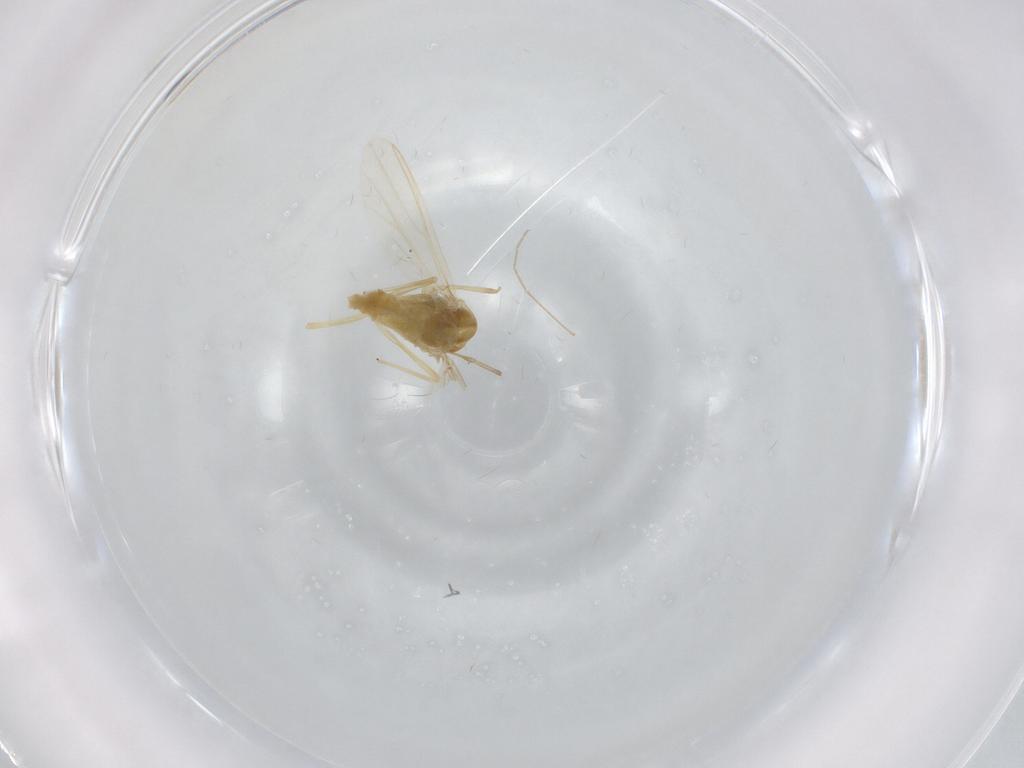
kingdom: Animalia
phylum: Arthropoda
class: Insecta
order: Diptera
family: Chironomidae
